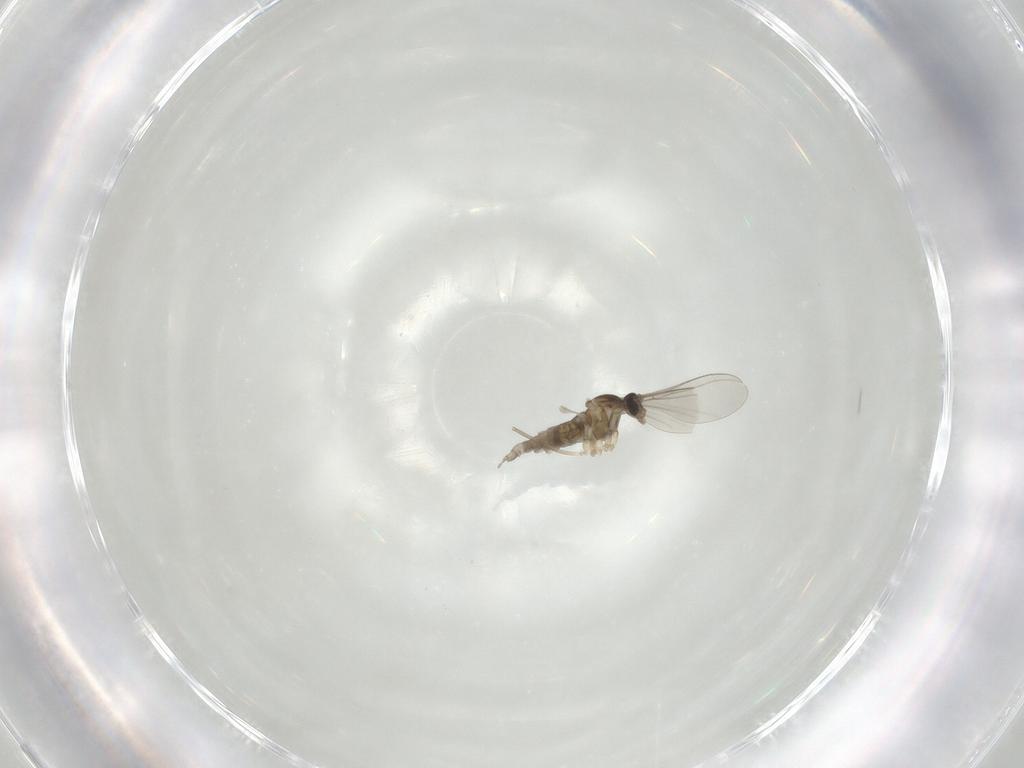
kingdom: Animalia
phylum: Arthropoda
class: Insecta
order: Diptera
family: Cecidomyiidae
